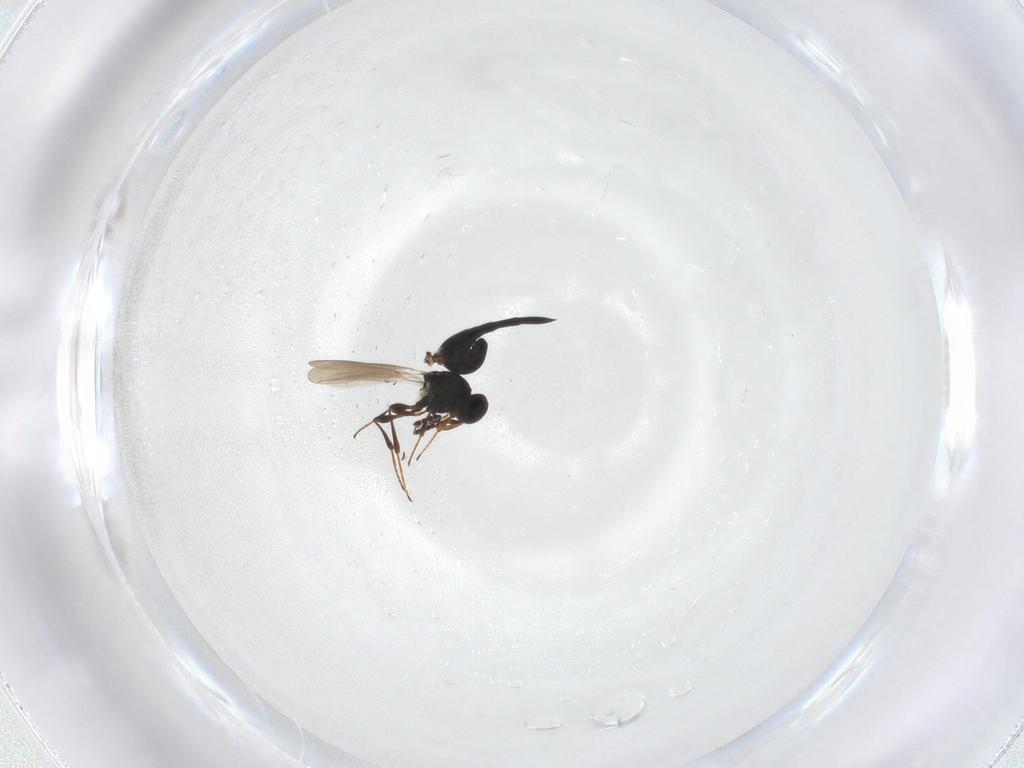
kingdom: Animalia
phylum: Arthropoda
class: Insecta
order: Hymenoptera
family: Platygastridae
